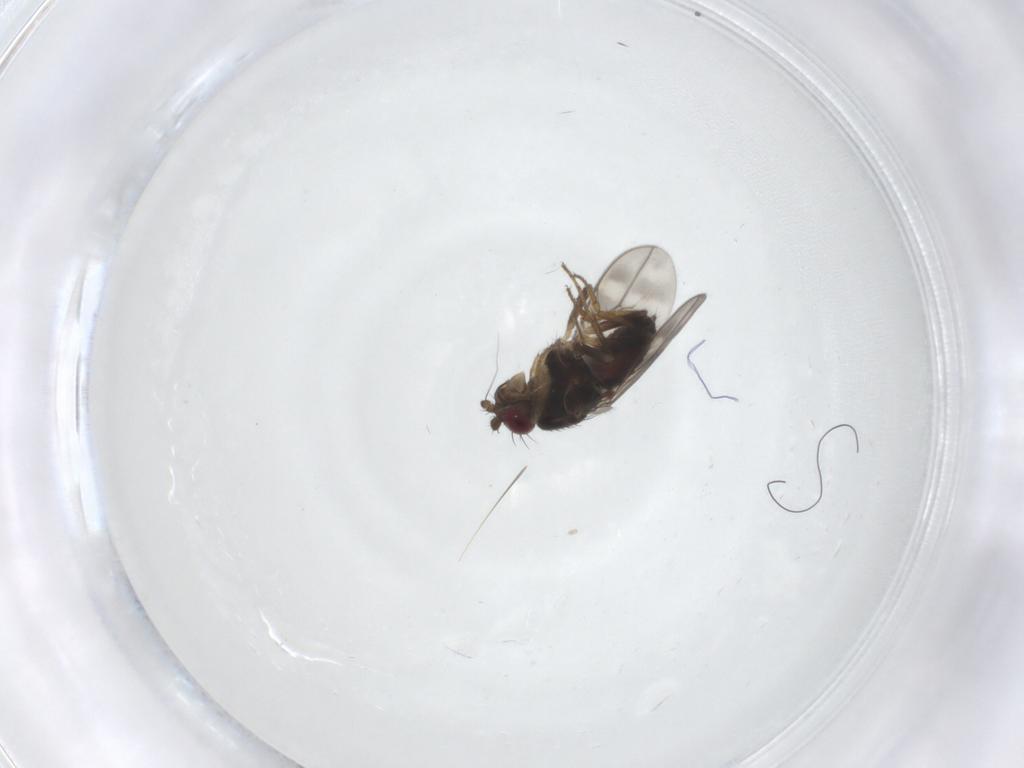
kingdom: Animalia
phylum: Arthropoda
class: Insecta
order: Diptera
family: Sphaeroceridae
